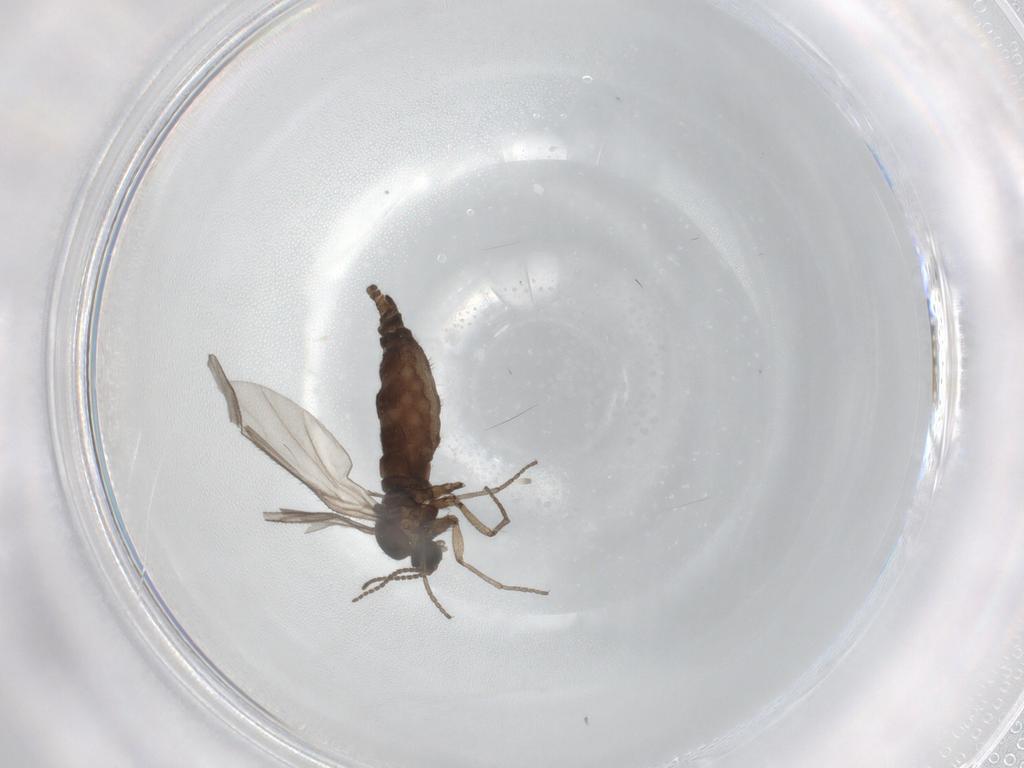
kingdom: Animalia
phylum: Arthropoda
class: Insecta
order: Diptera
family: Sciaridae
